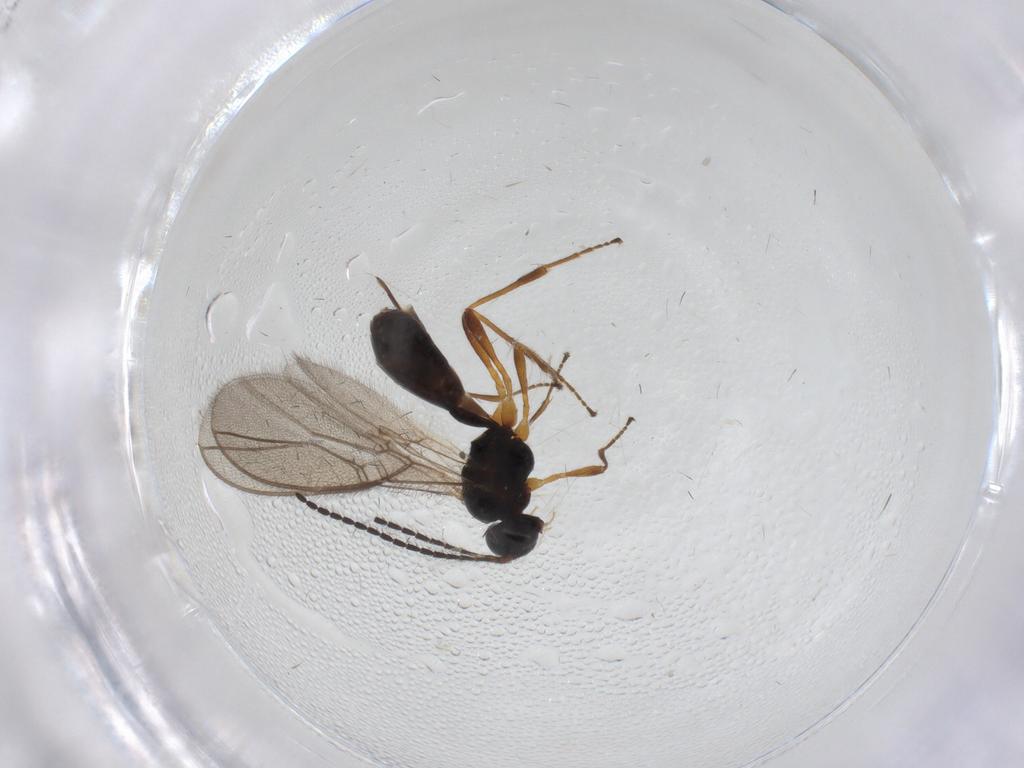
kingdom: Animalia
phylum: Arthropoda
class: Insecta
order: Hymenoptera
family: Braconidae
